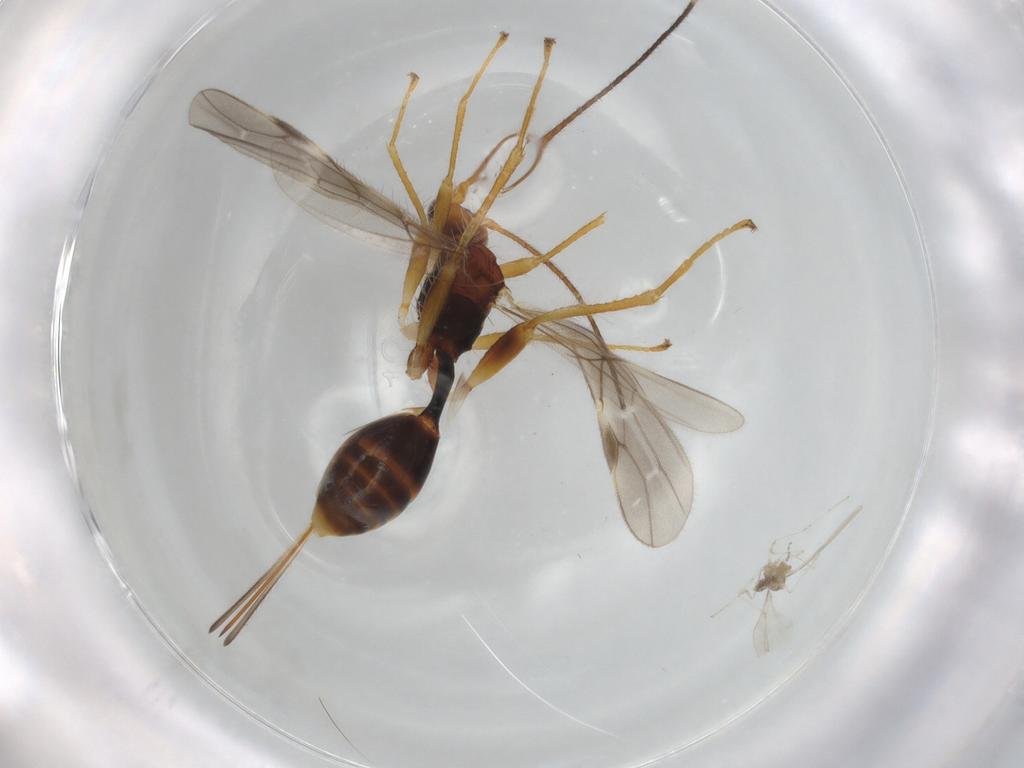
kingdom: Animalia
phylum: Arthropoda
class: Insecta
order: Hymenoptera
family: Braconidae
